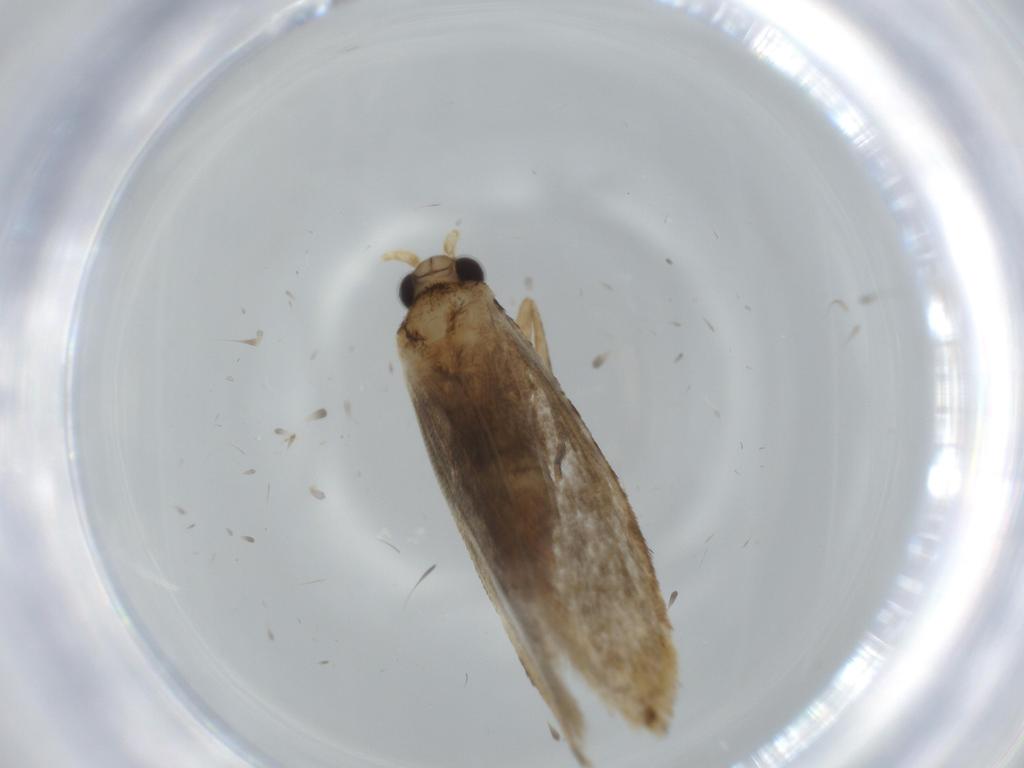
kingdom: Animalia
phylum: Arthropoda
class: Insecta
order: Lepidoptera
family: Tineidae
